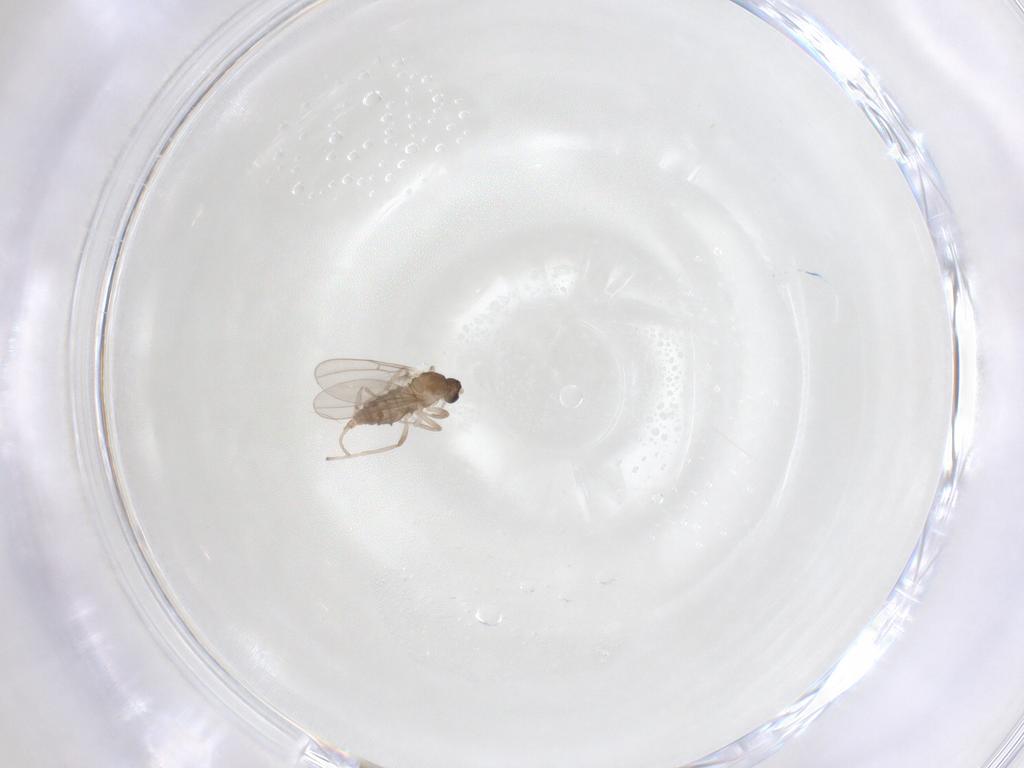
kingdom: Animalia
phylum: Arthropoda
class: Insecta
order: Diptera
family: Cecidomyiidae
